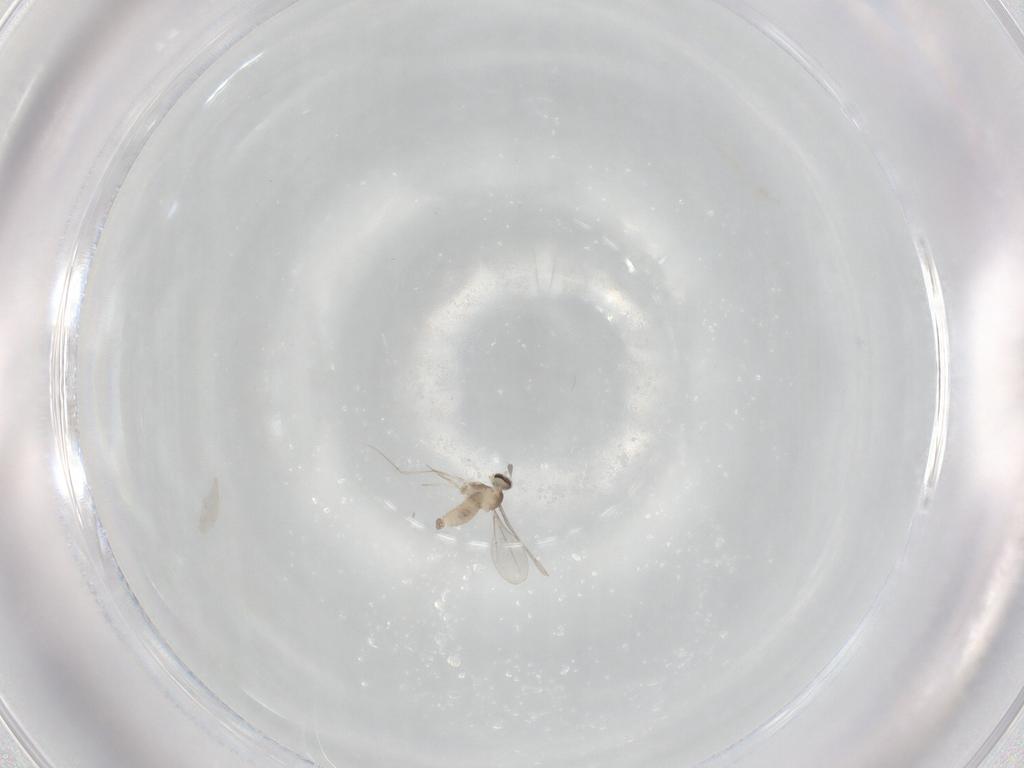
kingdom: Animalia
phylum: Arthropoda
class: Insecta
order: Diptera
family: Cecidomyiidae
